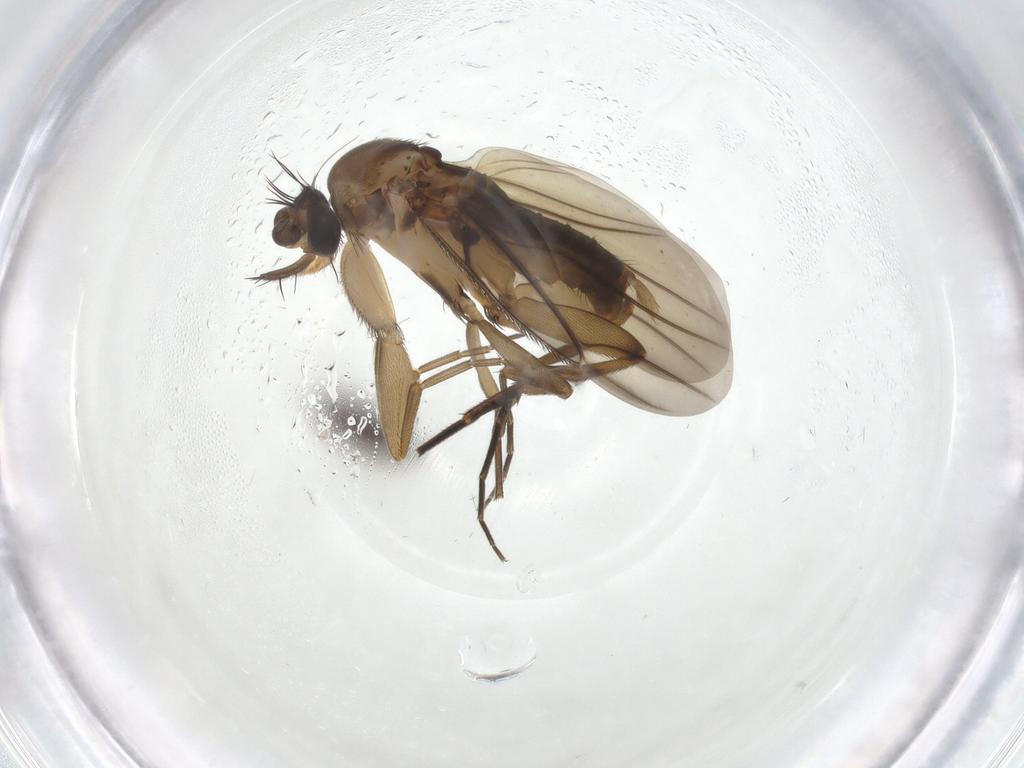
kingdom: Animalia
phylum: Arthropoda
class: Insecta
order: Diptera
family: Phoridae
